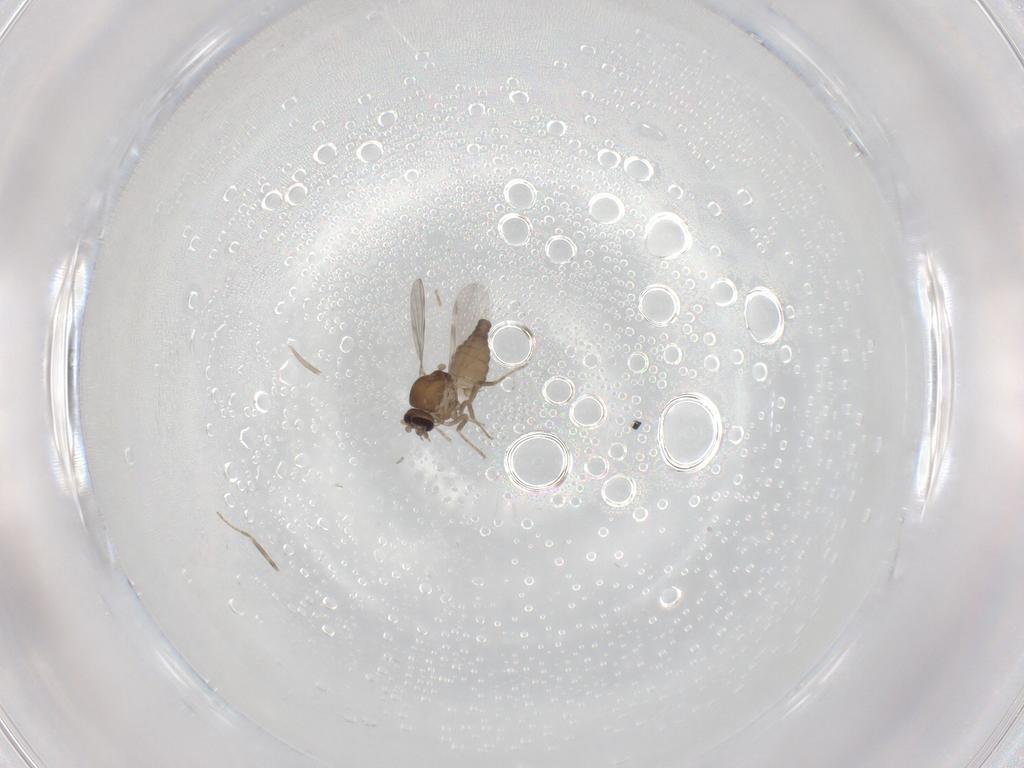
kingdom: Animalia
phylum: Arthropoda
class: Insecta
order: Diptera
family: Ceratopogonidae
